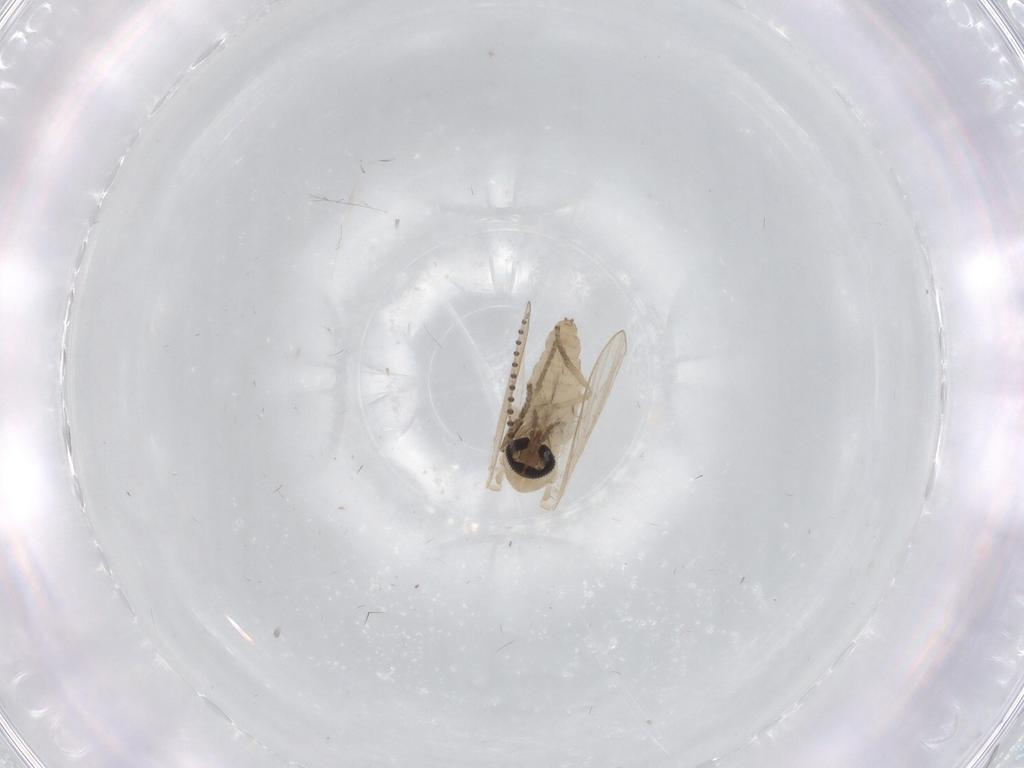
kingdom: Animalia
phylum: Arthropoda
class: Insecta
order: Diptera
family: Psychodidae
